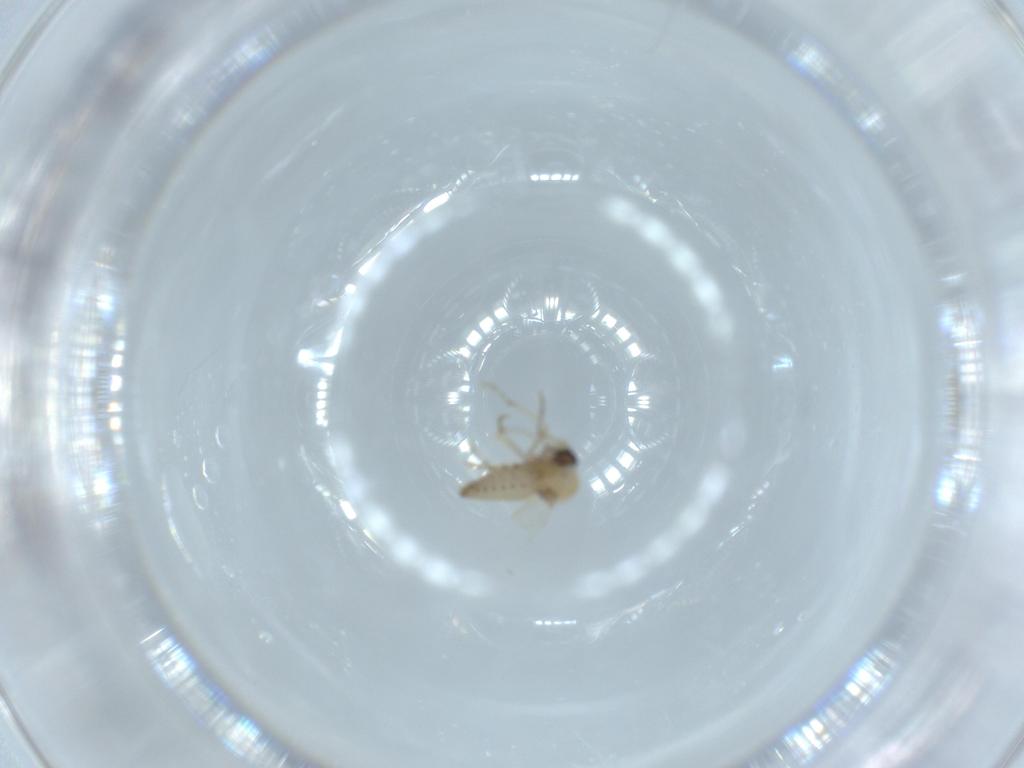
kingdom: Animalia
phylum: Arthropoda
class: Insecta
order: Diptera
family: Ceratopogonidae
